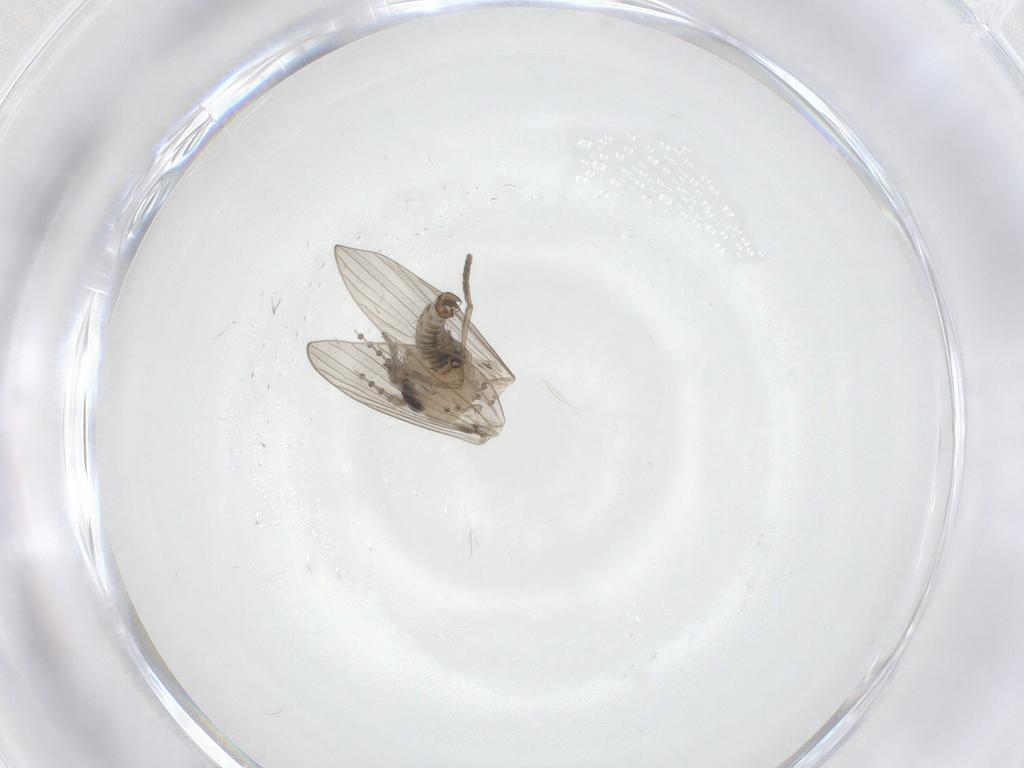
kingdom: Animalia
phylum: Arthropoda
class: Insecta
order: Diptera
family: Psychodidae
